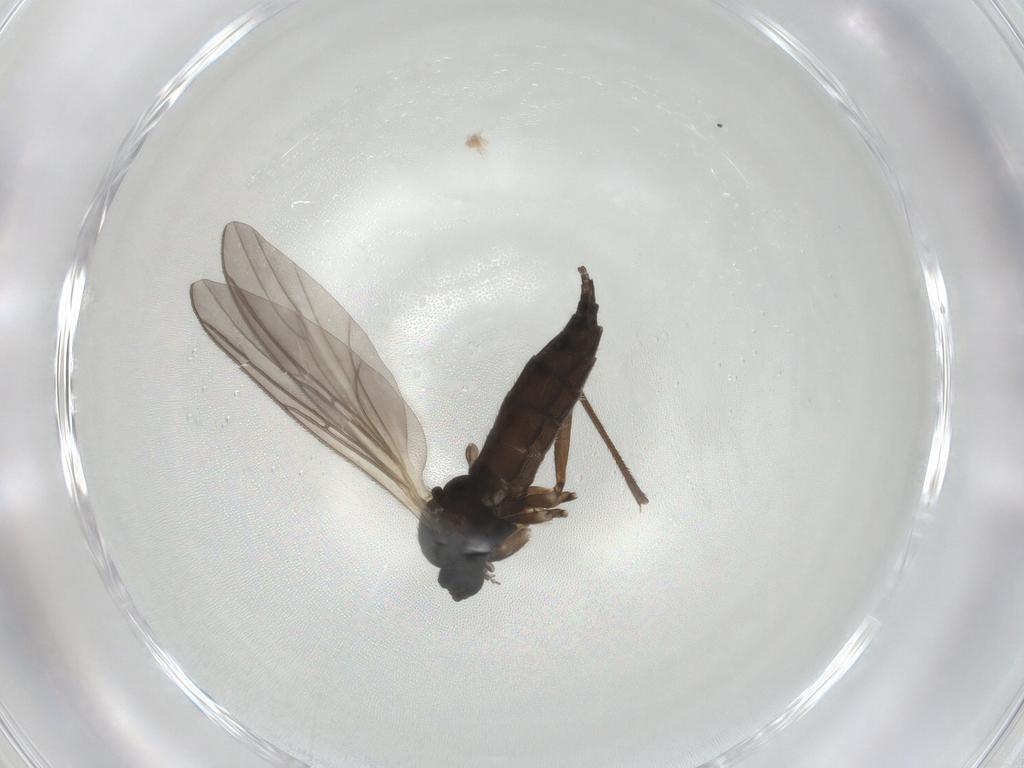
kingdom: Animalia
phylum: Arthropoda
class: Insecta
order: Diptera
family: Sciaridae
